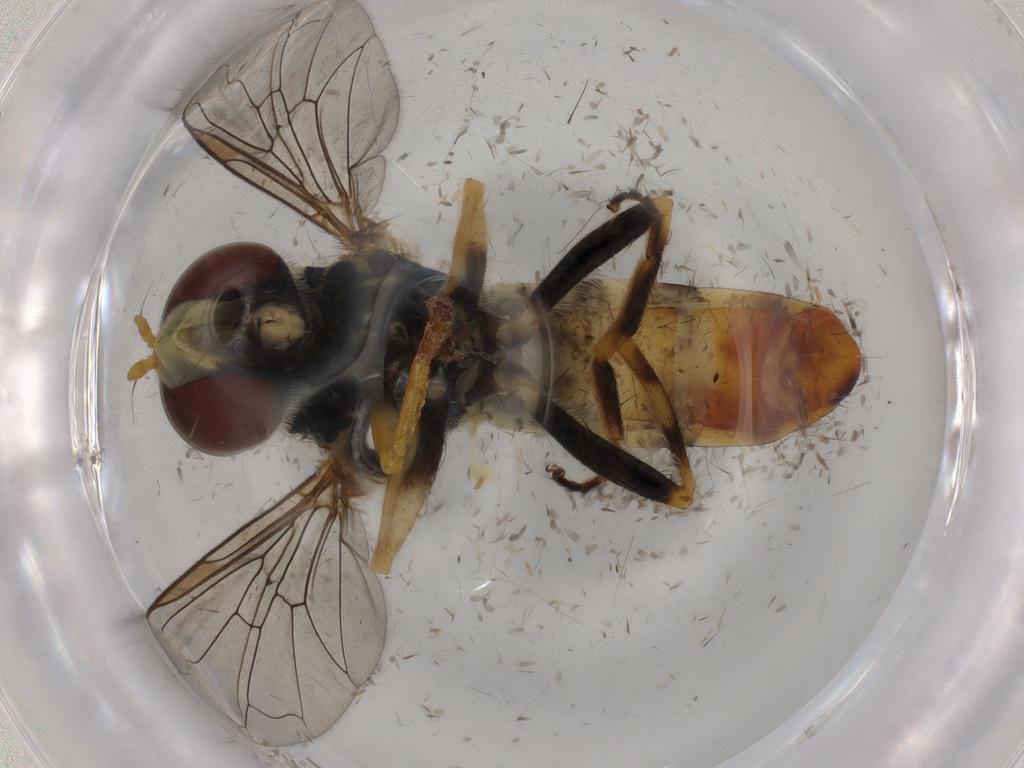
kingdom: Animalia
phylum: Arthropoda
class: Insecta
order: Diptera
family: Syrphidae
